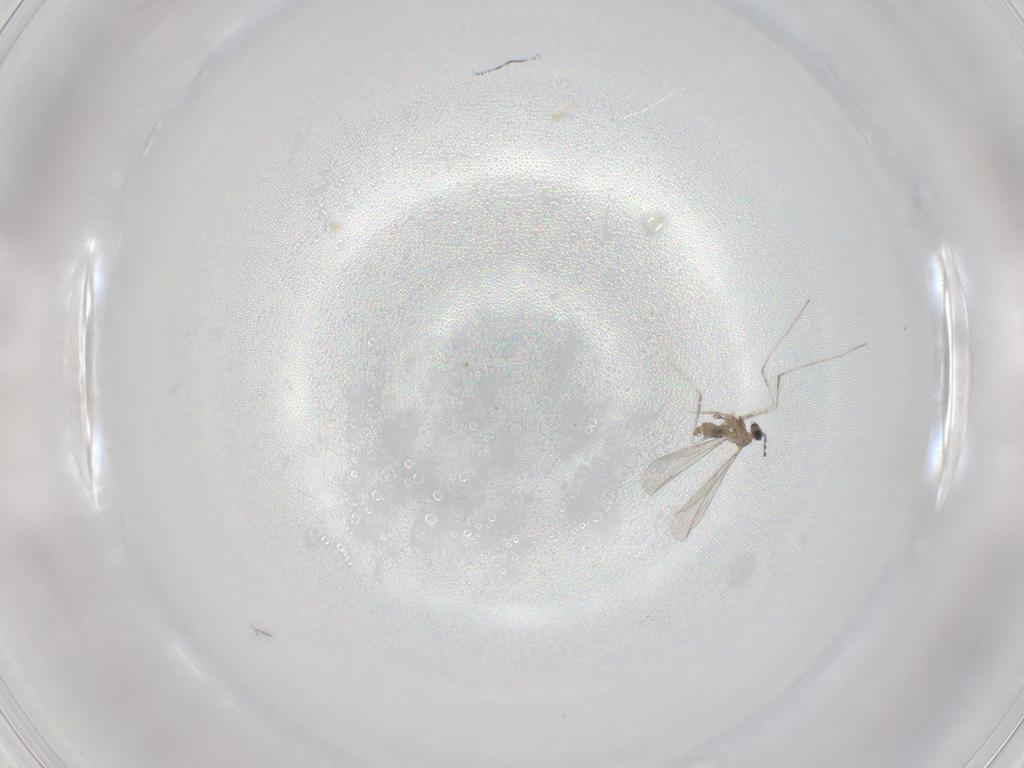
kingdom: Animalia
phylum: Arthropoda
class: Insecta
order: Diptera
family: Cecidomyiidae
